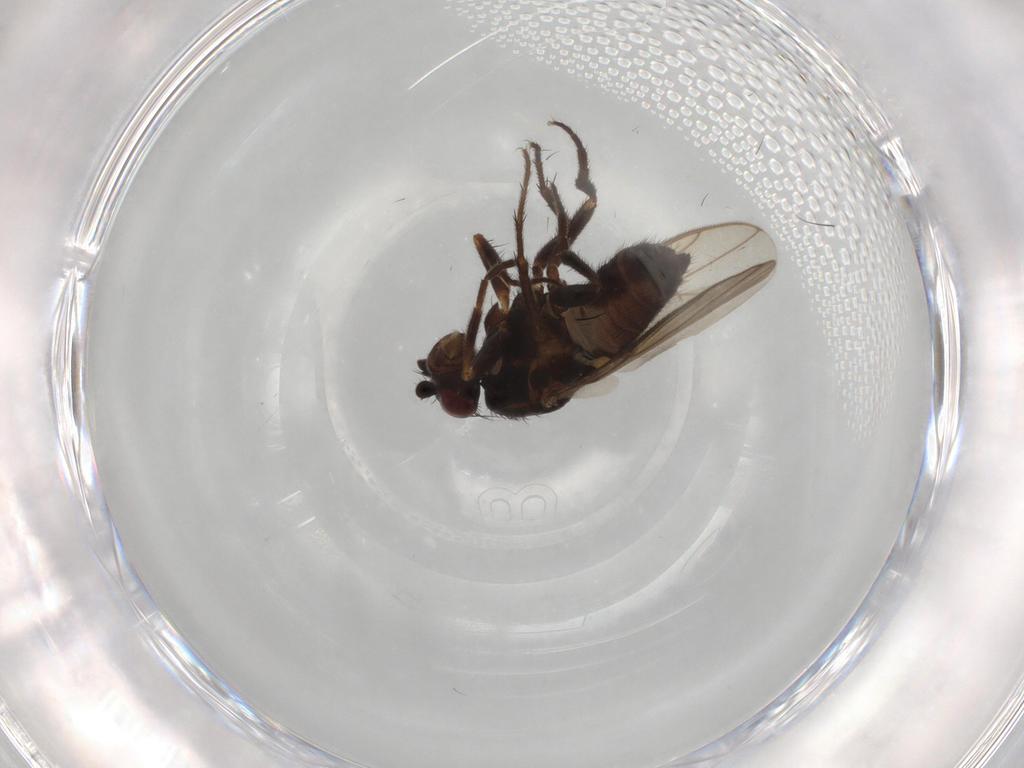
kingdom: Animalia
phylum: Arthropoda
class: Insecta
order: Diptera
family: Sphaeroceridae
